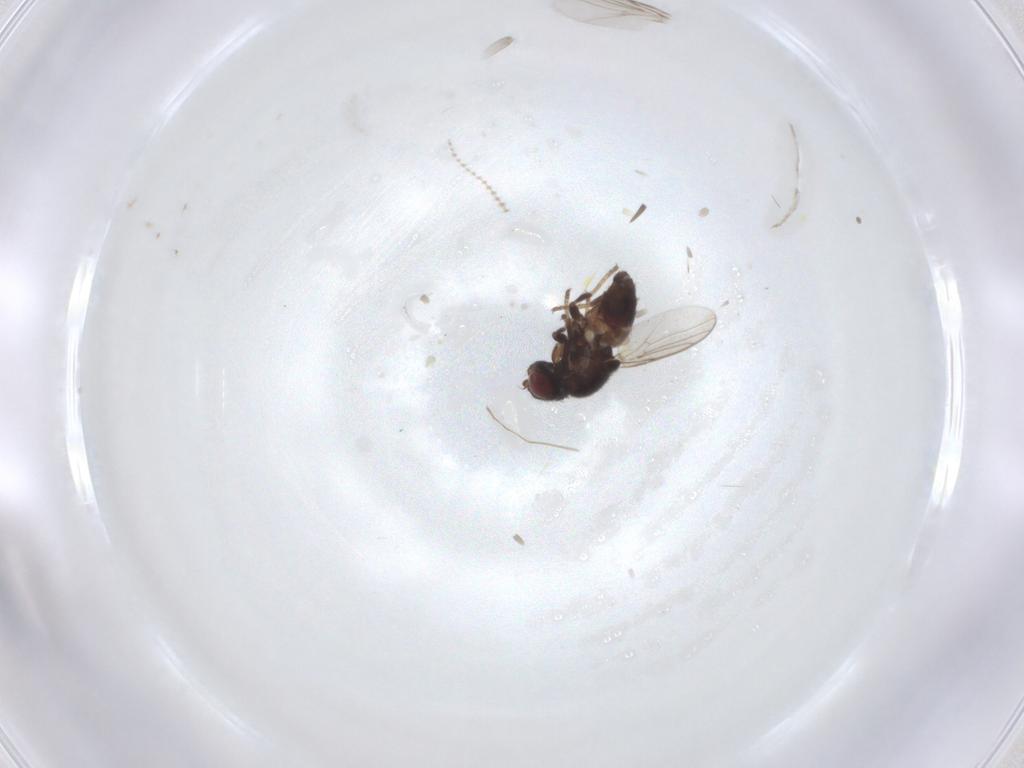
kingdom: Animalia
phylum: Arthropoda
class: Insecta
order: Diptera
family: Chloropidae
